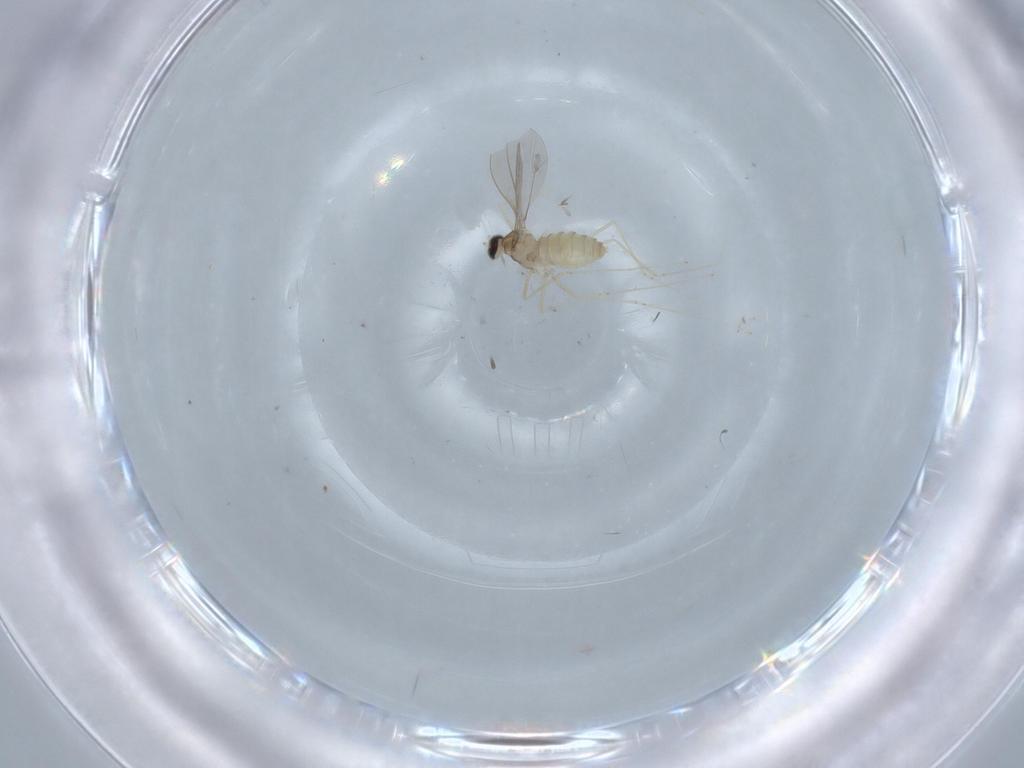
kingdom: Animalia
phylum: Arthropoda
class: Insecta
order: Diptera
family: Cecidomyiidae
